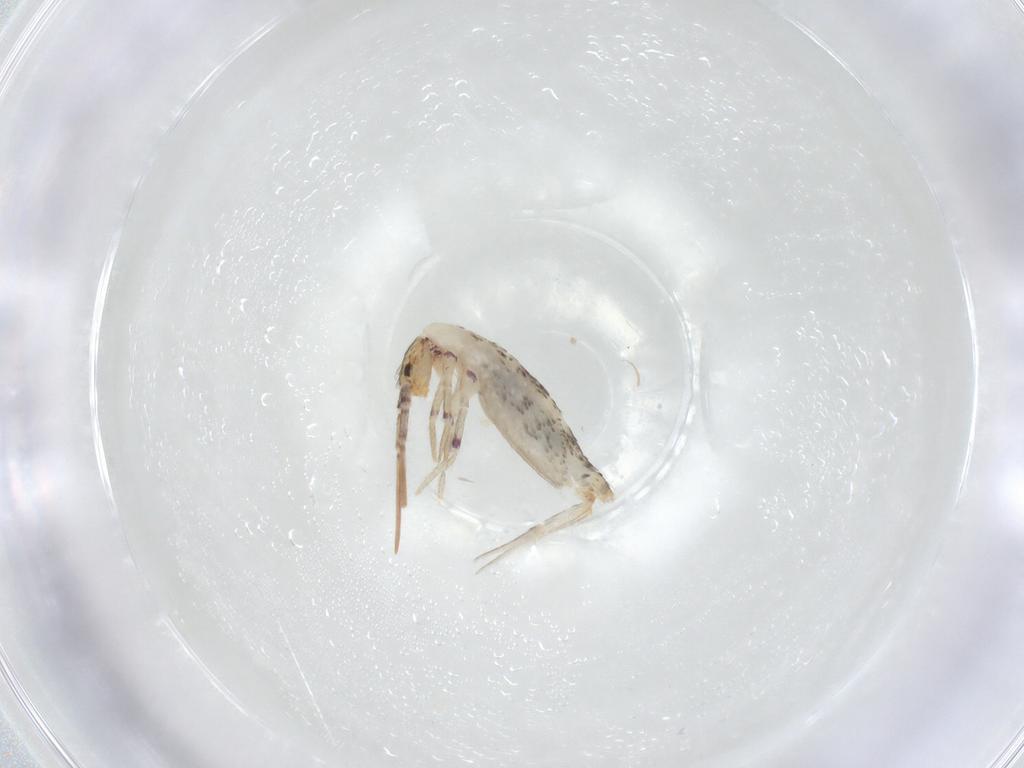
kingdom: Animalia
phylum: Arthropoda
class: Collembola
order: Entomobryomorpha
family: Entomobryidae
